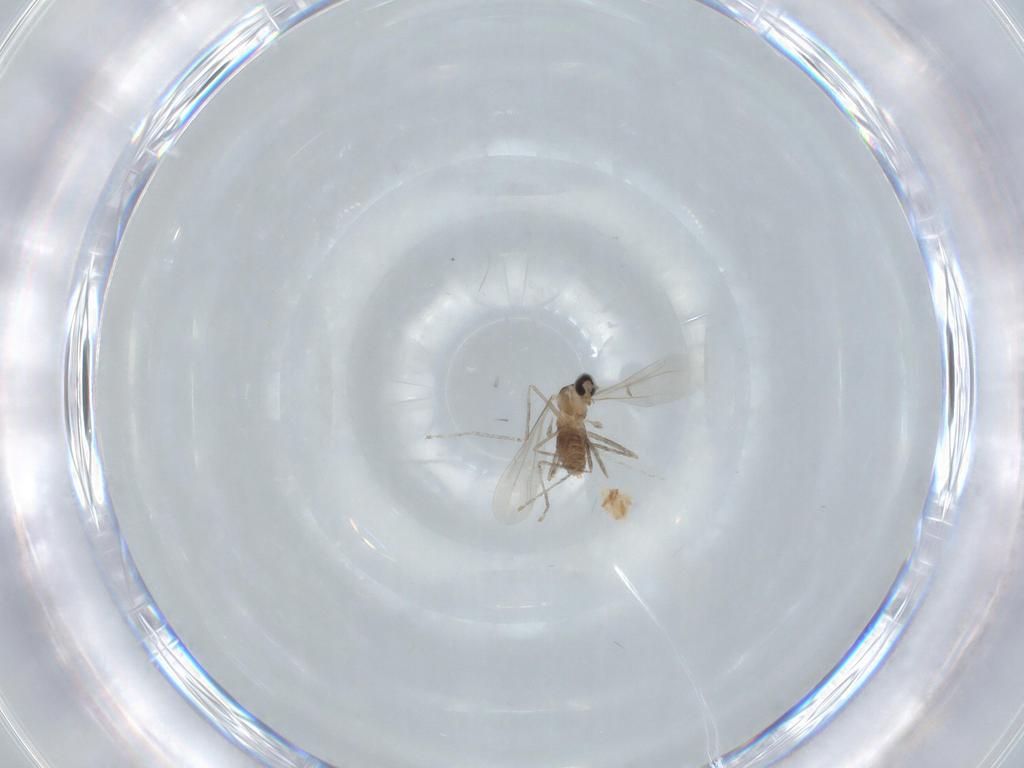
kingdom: Animalia
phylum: Arthropoda
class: Insecta
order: Diptera
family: Cecidomyiidae
